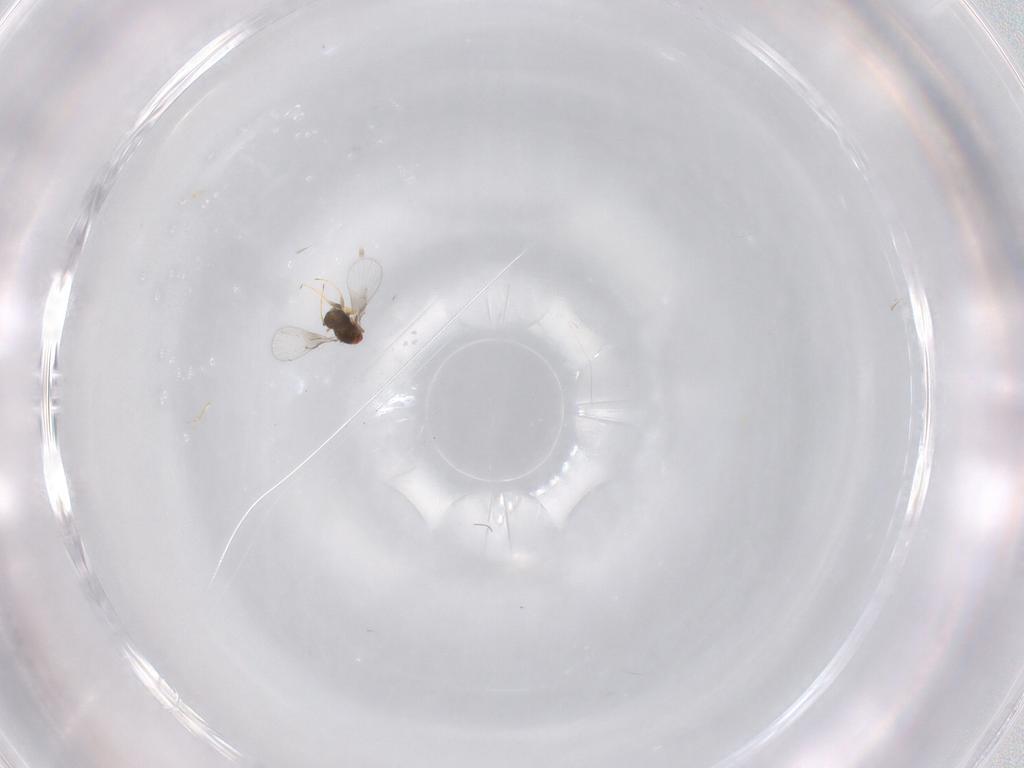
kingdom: Animalia
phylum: Arthropoda
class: Insecta
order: Hymenoptera
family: Trichogrammatidae
